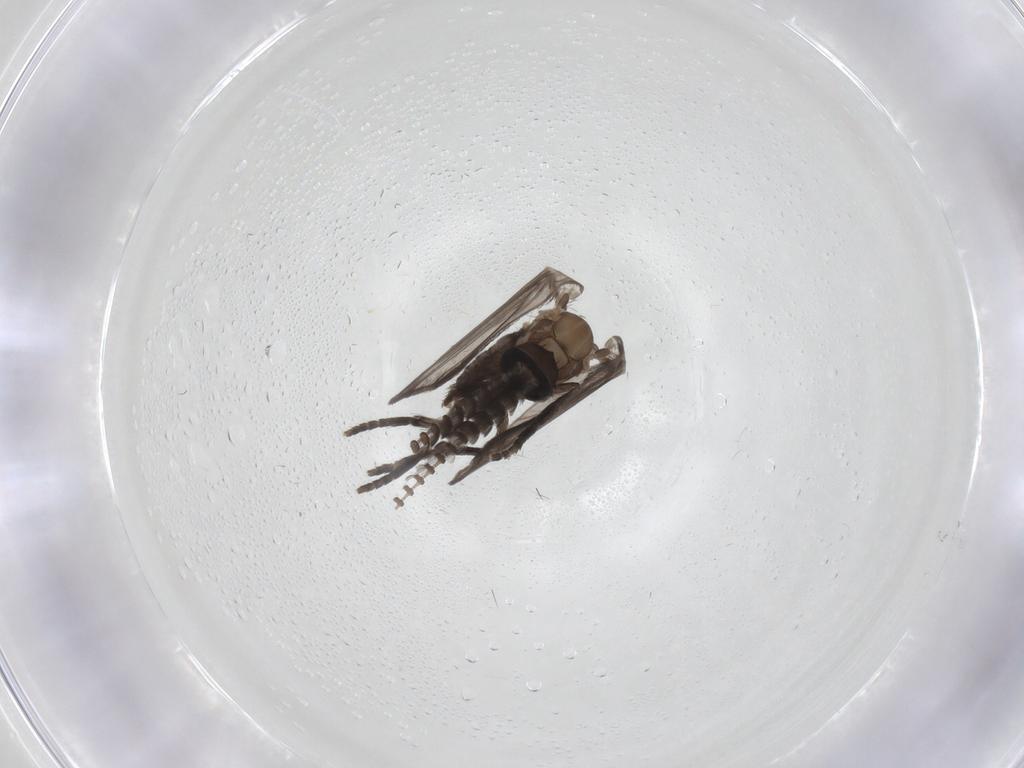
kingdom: Animalia
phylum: Arthropoda
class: Insecta
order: Diptera
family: Psychodidae
